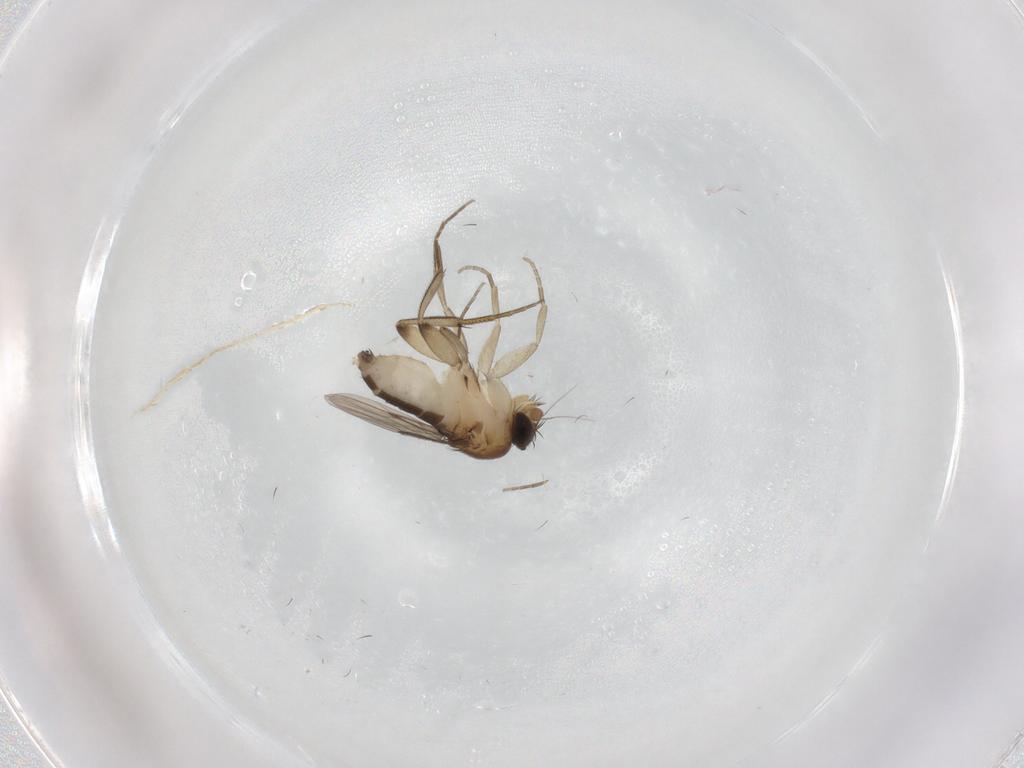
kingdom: Animalia
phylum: Arthropoda
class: Insecta
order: Diptera
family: Phoridae
